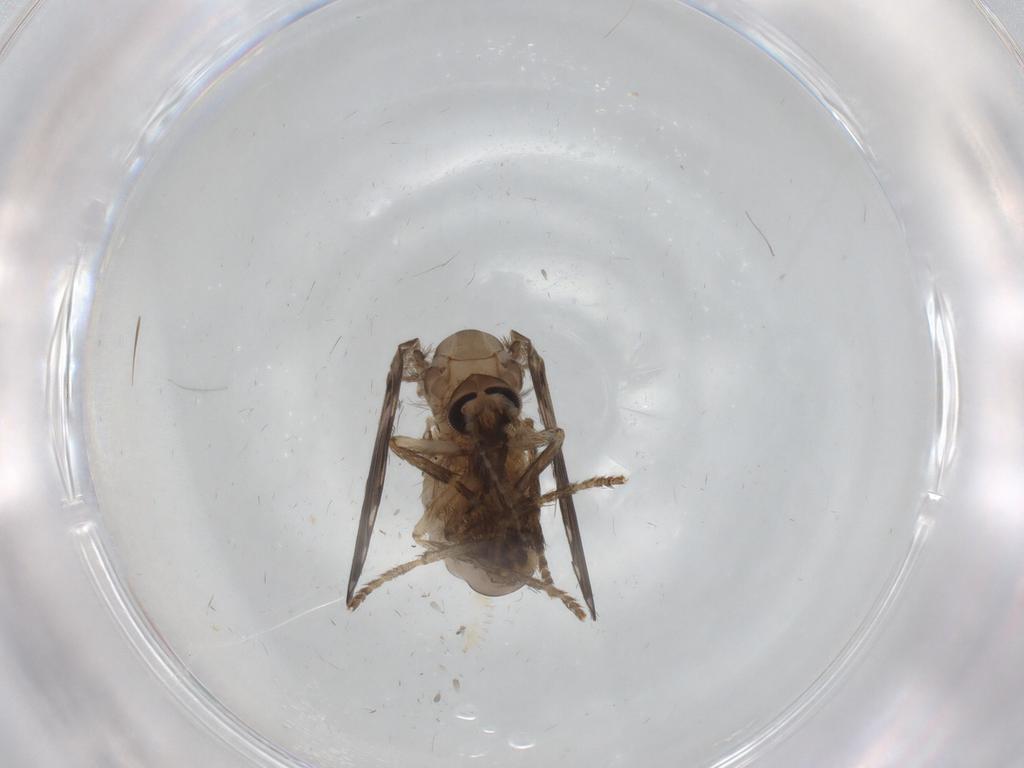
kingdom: Animalia
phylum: Arthropoda
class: Insecta
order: Diptera
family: Drosophilidae
